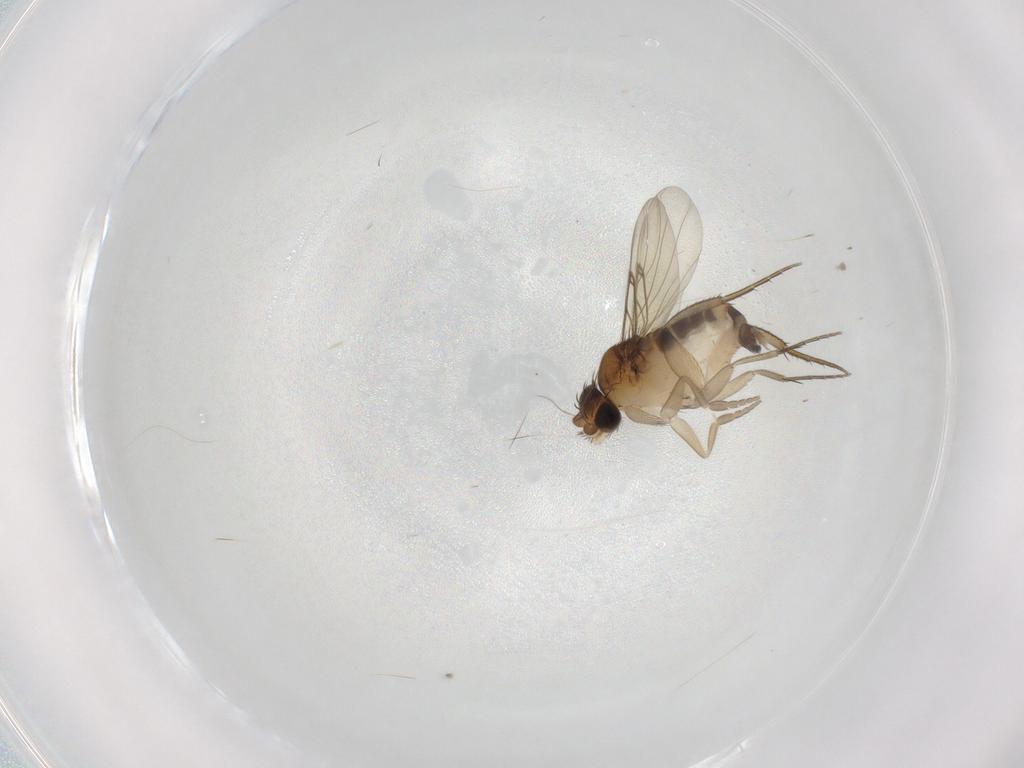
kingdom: Animalia
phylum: Arthropoda
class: Insecta
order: Diptera
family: Phoridae
